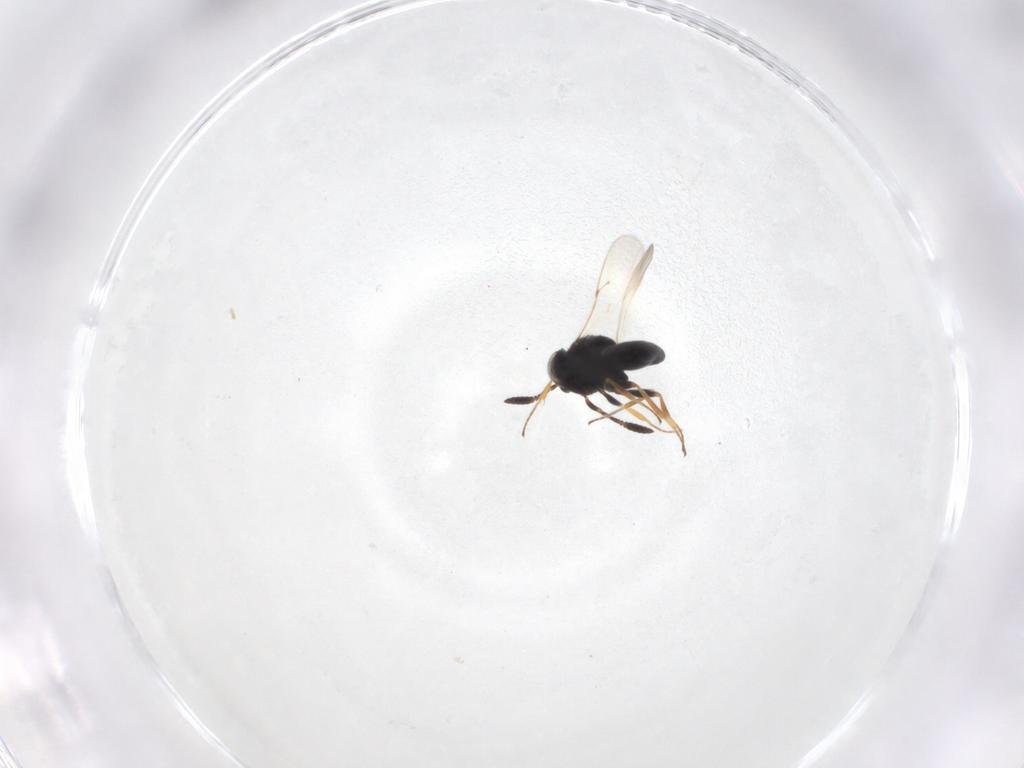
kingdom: Animalia
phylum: Arthropoda
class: Insecta
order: Hymenoptera
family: Scelionidae
